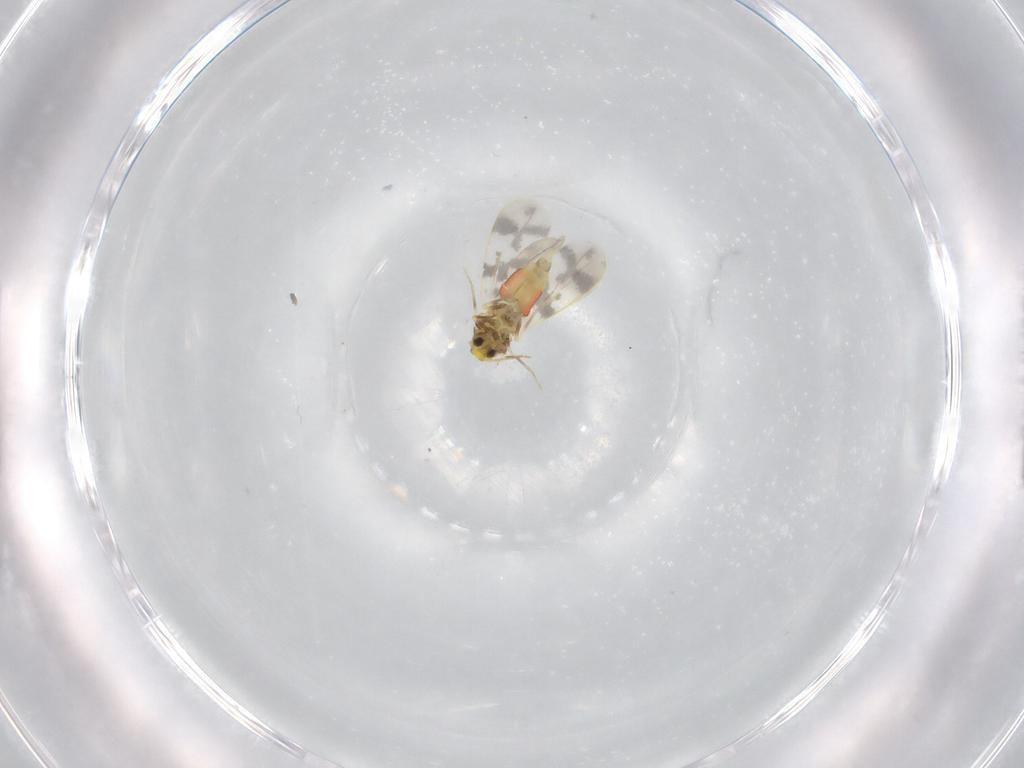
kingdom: Animalia
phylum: Arthropoda
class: Insecta
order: Hemiptera
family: Aleyrodidae
